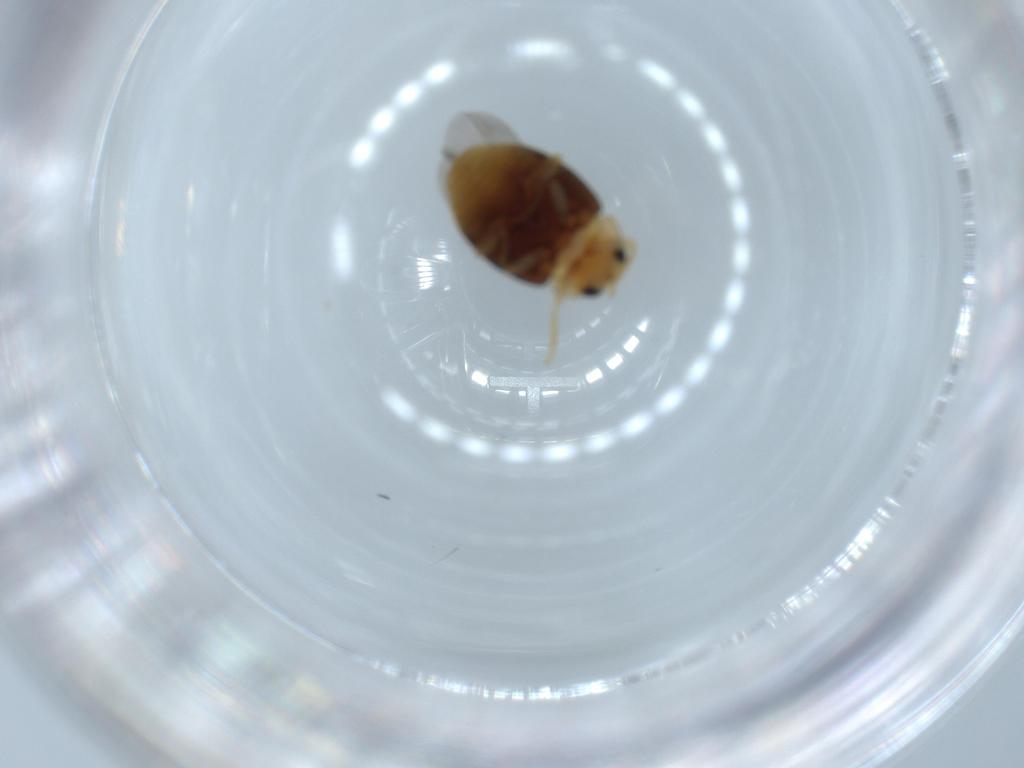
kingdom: Animalia
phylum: Arthropoda
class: Insecta
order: Coleoptera
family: Coccinellidae
